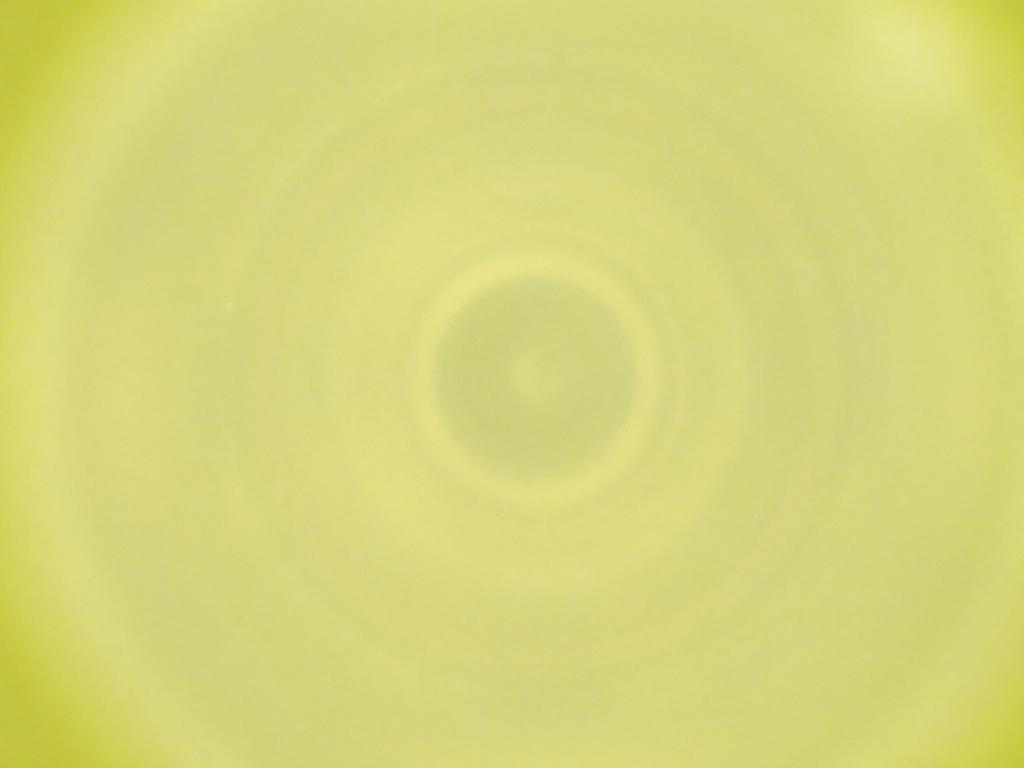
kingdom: Animalia
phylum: Arthropoda
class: Insecta
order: Diptera
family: Cecidomyiidae
